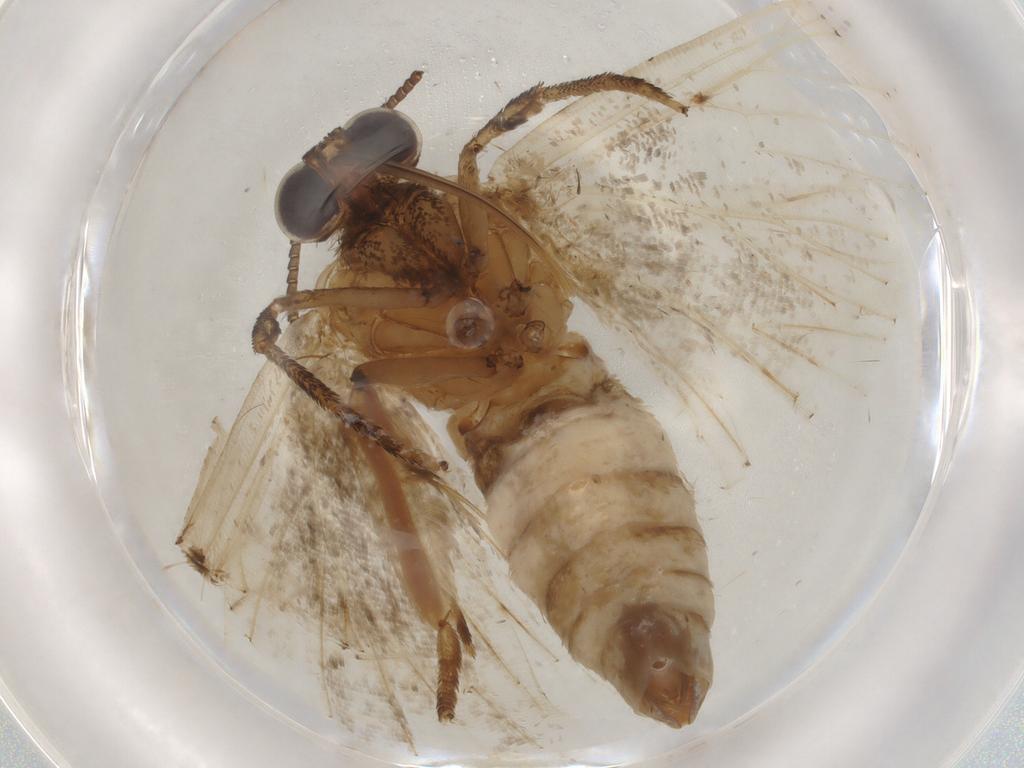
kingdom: Animalia
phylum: Arthropoda
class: Insecta
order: Lepidoptera
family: Geometridae
